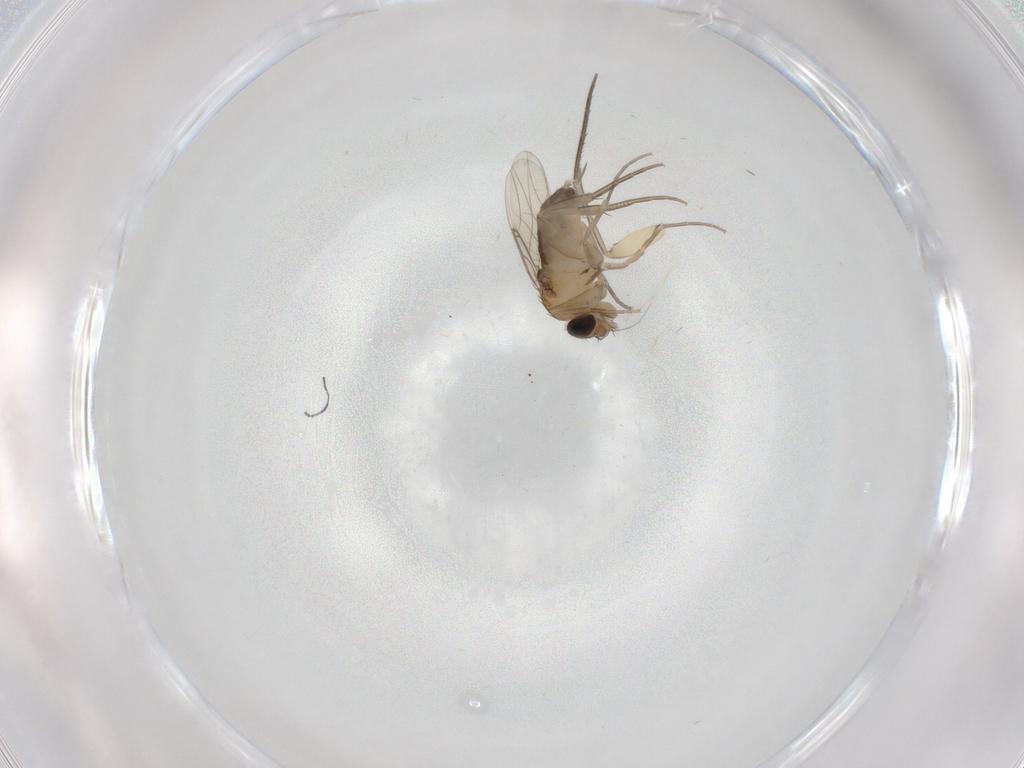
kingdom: Animalia
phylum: Arthropoda
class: Insecta
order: Diptera
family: Phoridae
